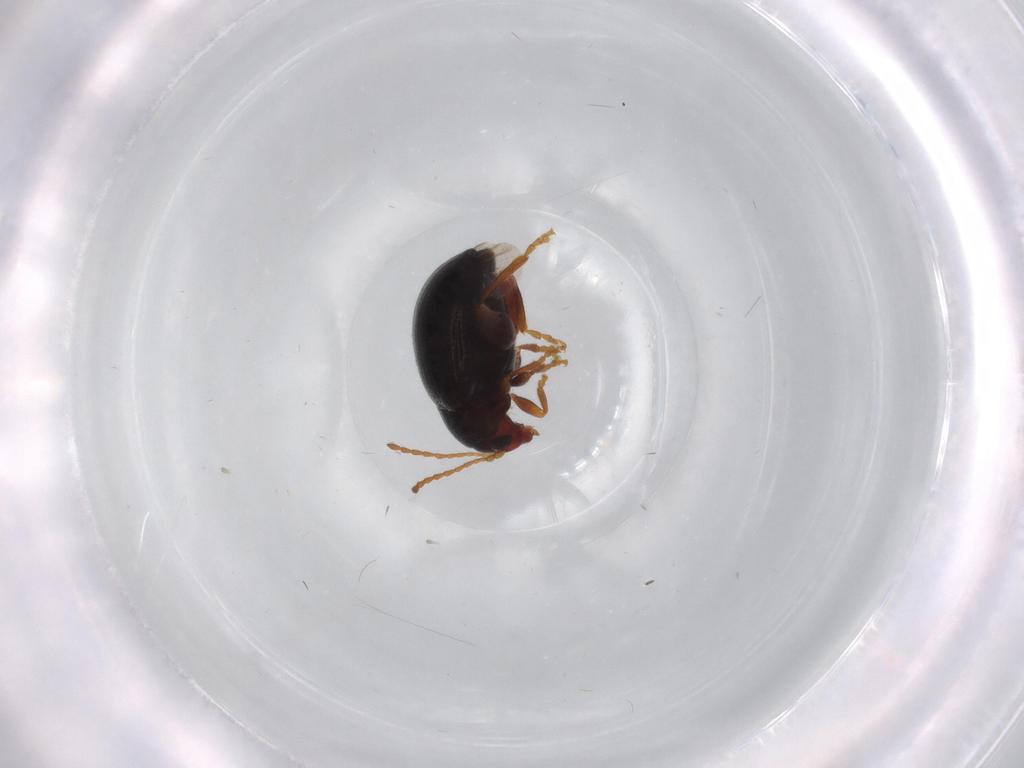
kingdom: Animalia
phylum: Arthropoda
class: Insecta
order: Coleoptera
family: Chrysomelidae
